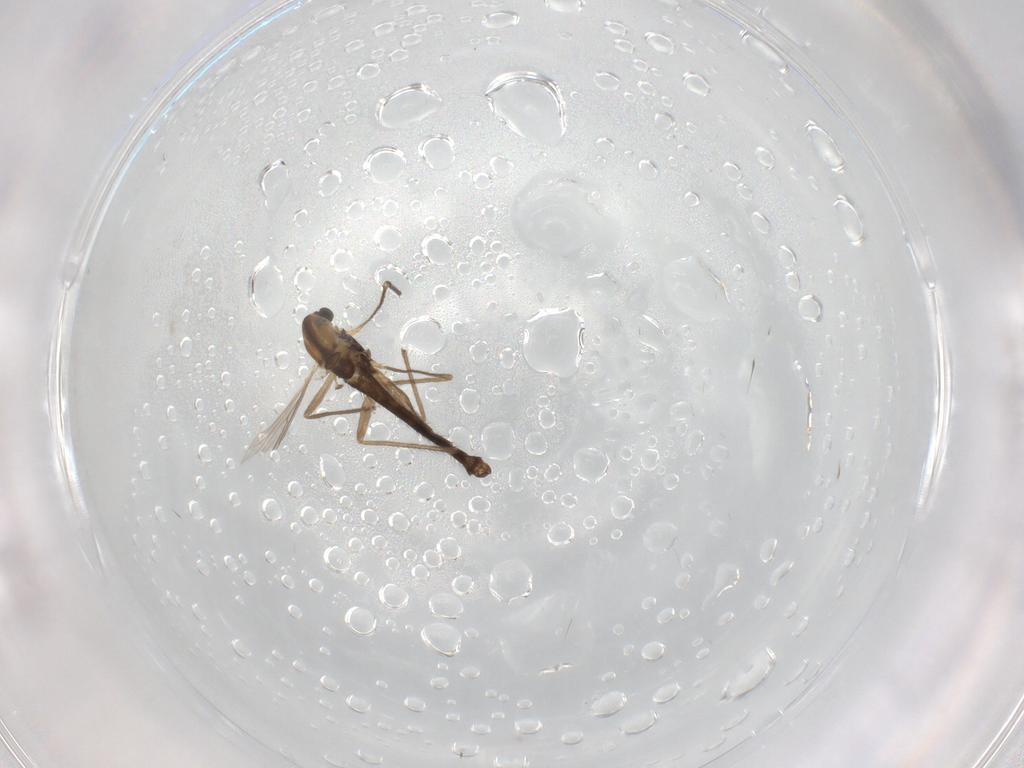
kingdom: Animalia
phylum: Arthropoda
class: Insecta
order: Diptera
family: Chironomidae
